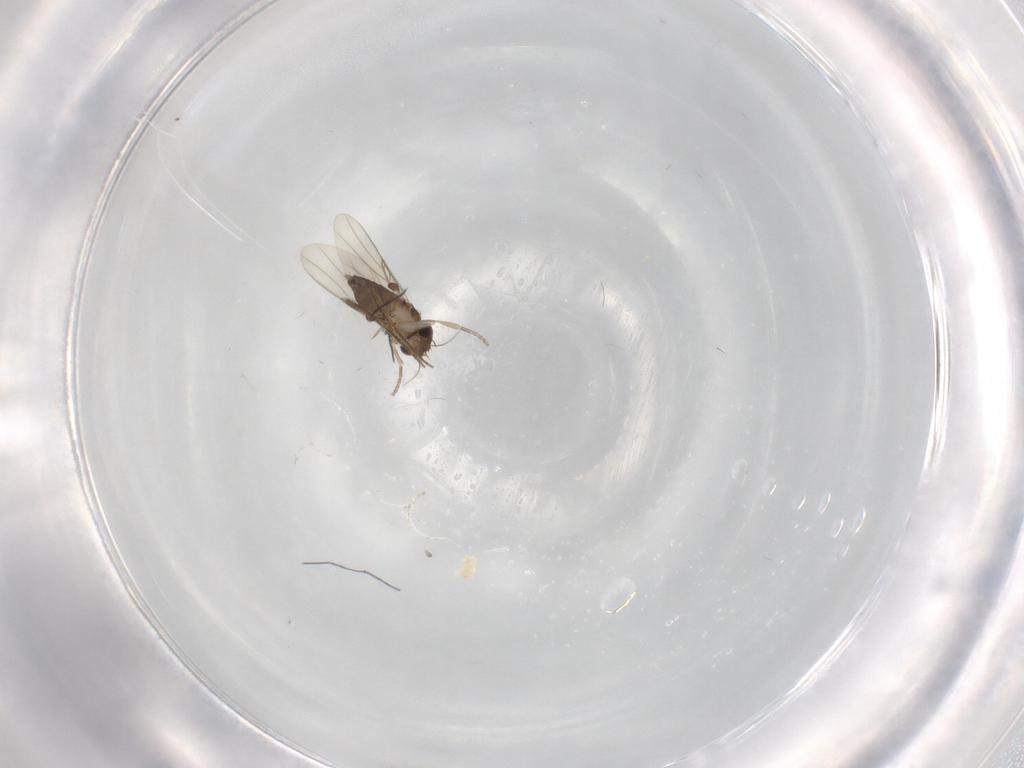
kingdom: Animalia
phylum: Arthropoda
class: Insecta
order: Diptera
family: Phoridae
